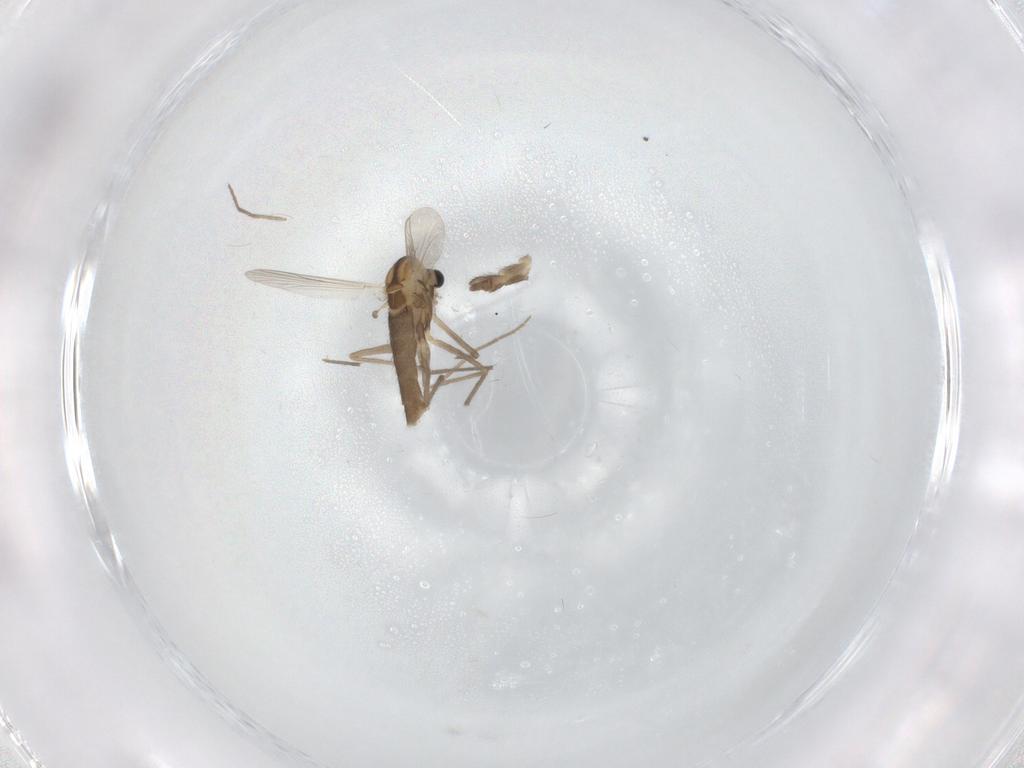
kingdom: Animalia
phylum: Arthropoda
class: Insecta
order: Diptera
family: Chironomidae
